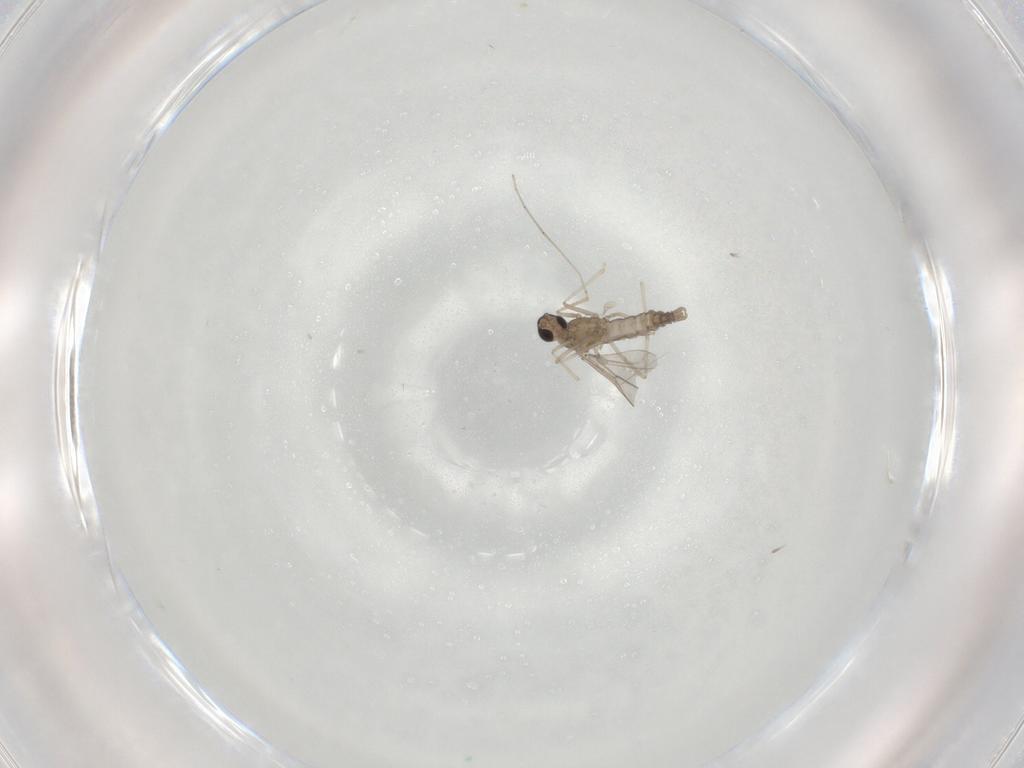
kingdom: Animalia
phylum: Arthropoda
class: Insecta
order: Diptera
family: Cecidomyiidae
